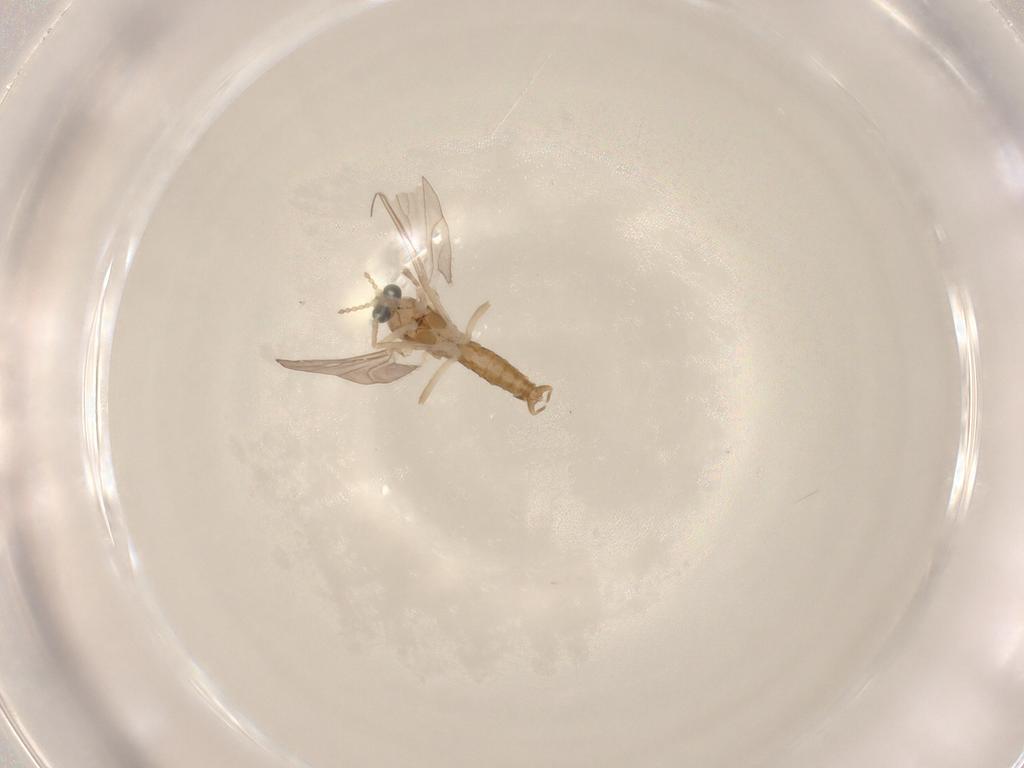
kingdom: Animalia
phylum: Arthropoda
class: Insecta
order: Diptera
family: Cecidomyiidae
